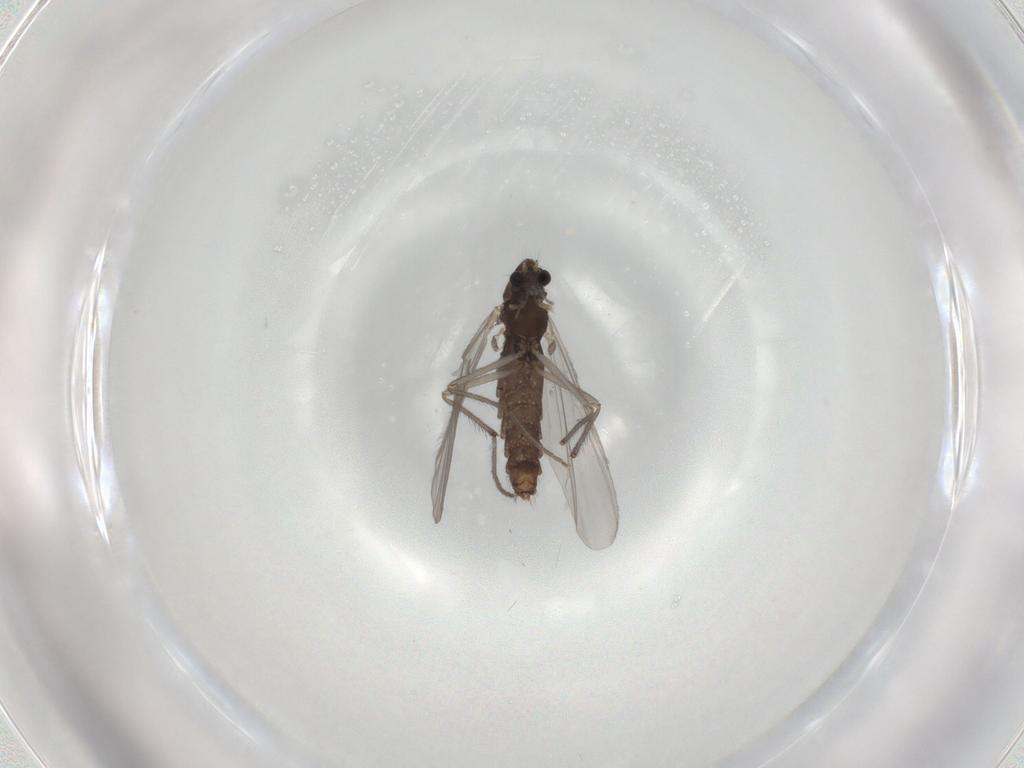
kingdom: Animalia
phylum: Arthropoda
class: Insecta
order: Diptera
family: Chironomidae
